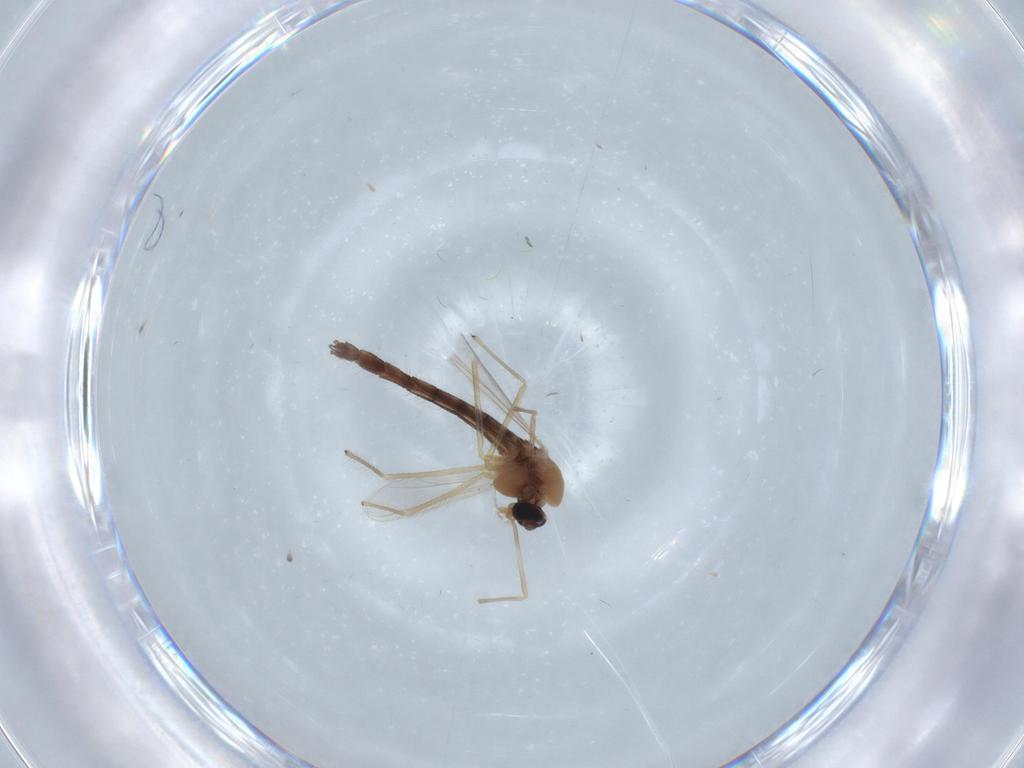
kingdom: Animalia
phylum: Arthropoda
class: Insecta
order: Diptera
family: Chironomidae
